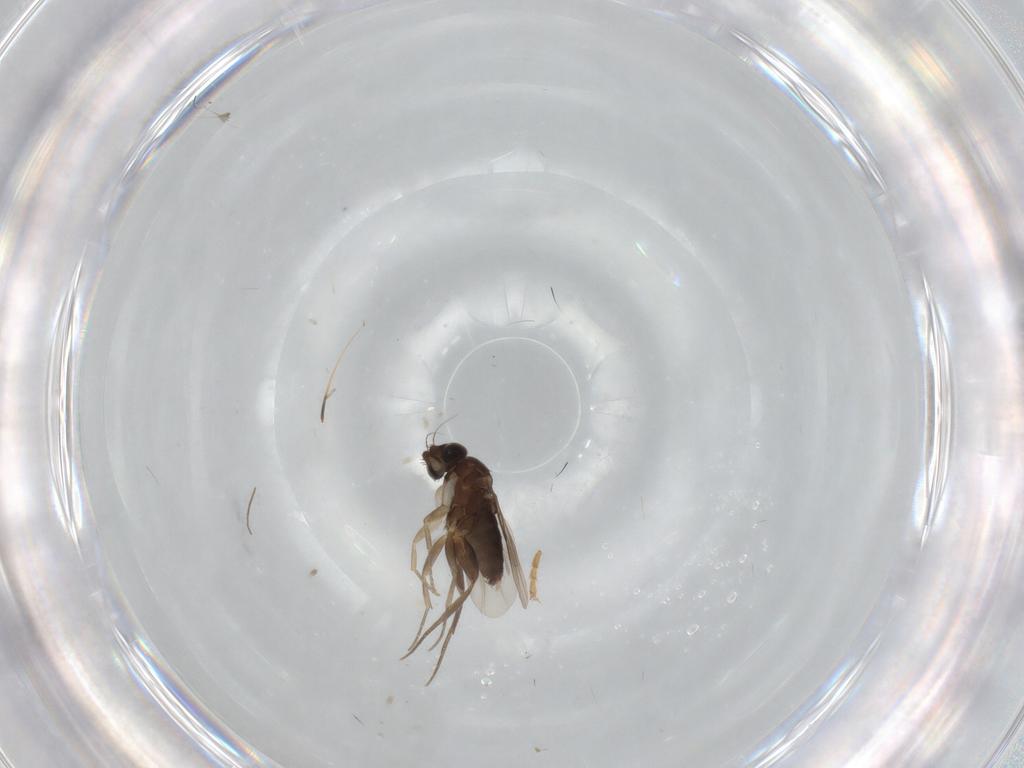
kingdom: Animalia
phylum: Arthropoda
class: Insecta
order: Diptera
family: Phoridae
